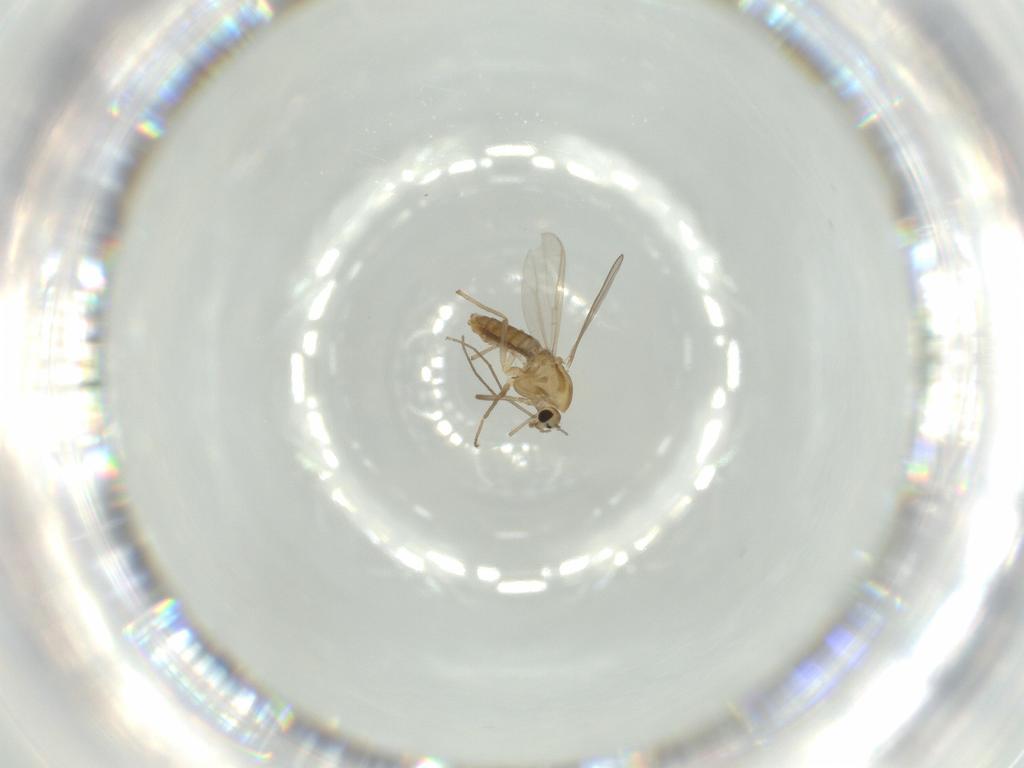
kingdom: Animalia
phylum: Arthropoda
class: Insecta
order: Diptera
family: Chironomidae
